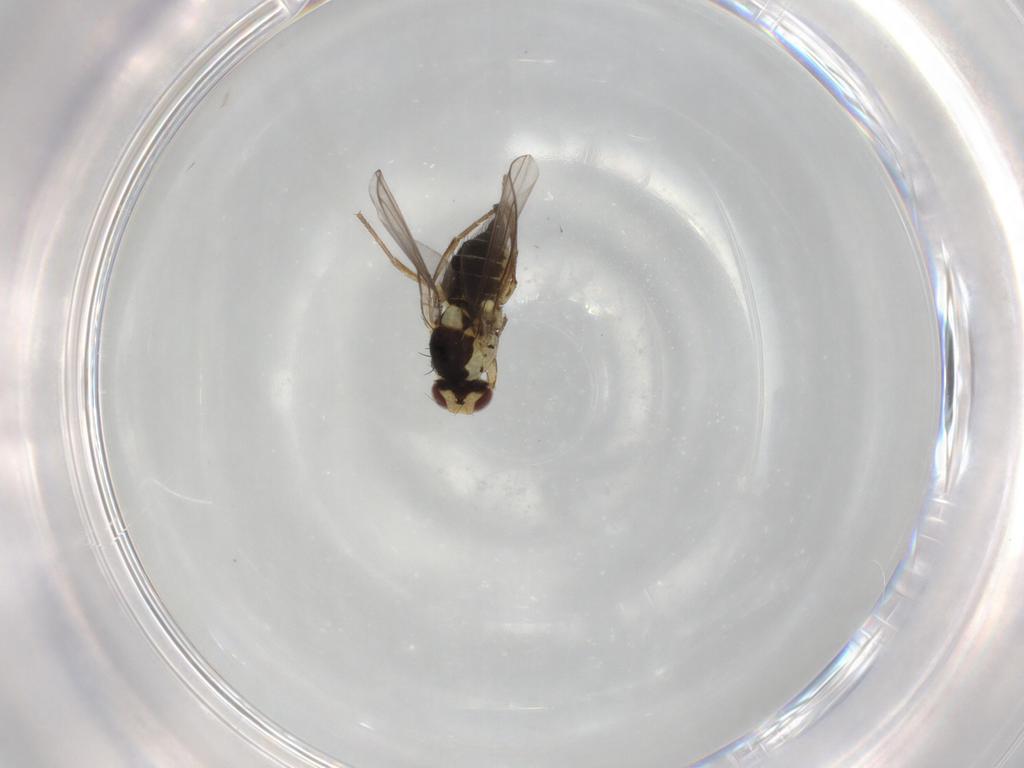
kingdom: Animalia
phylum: Arthropoda
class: Insecta
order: Diptera
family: Agromyzidae
